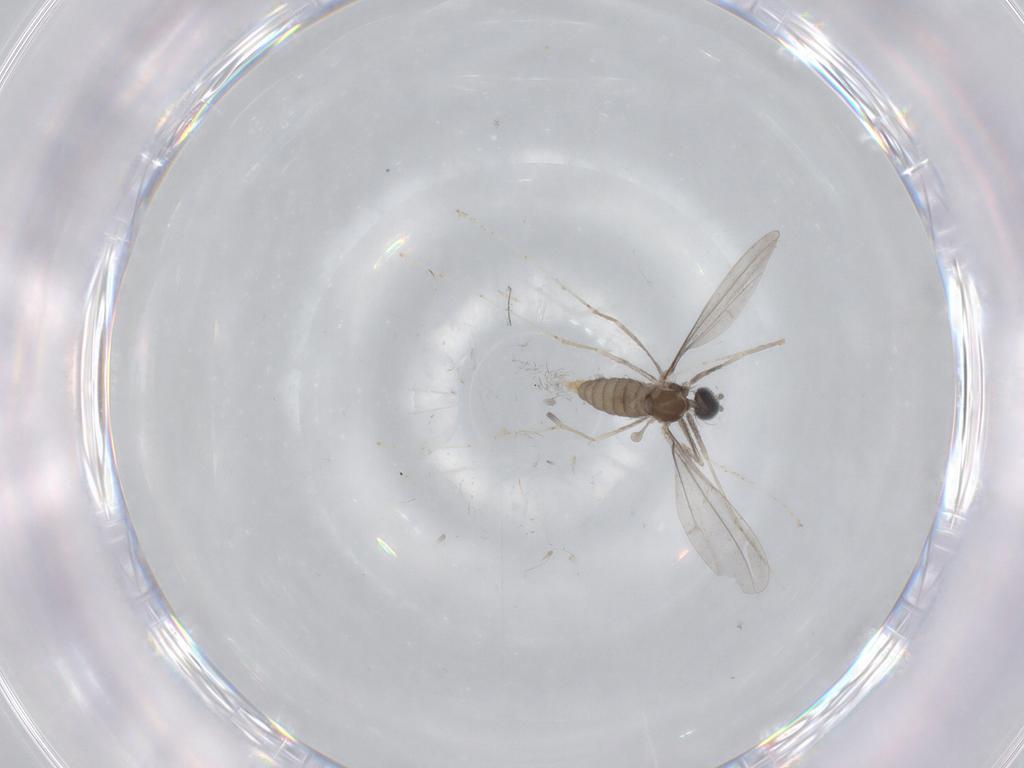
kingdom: Animalia
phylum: Arthropoda
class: Insecta
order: Diptera
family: Cecidomyiidae
